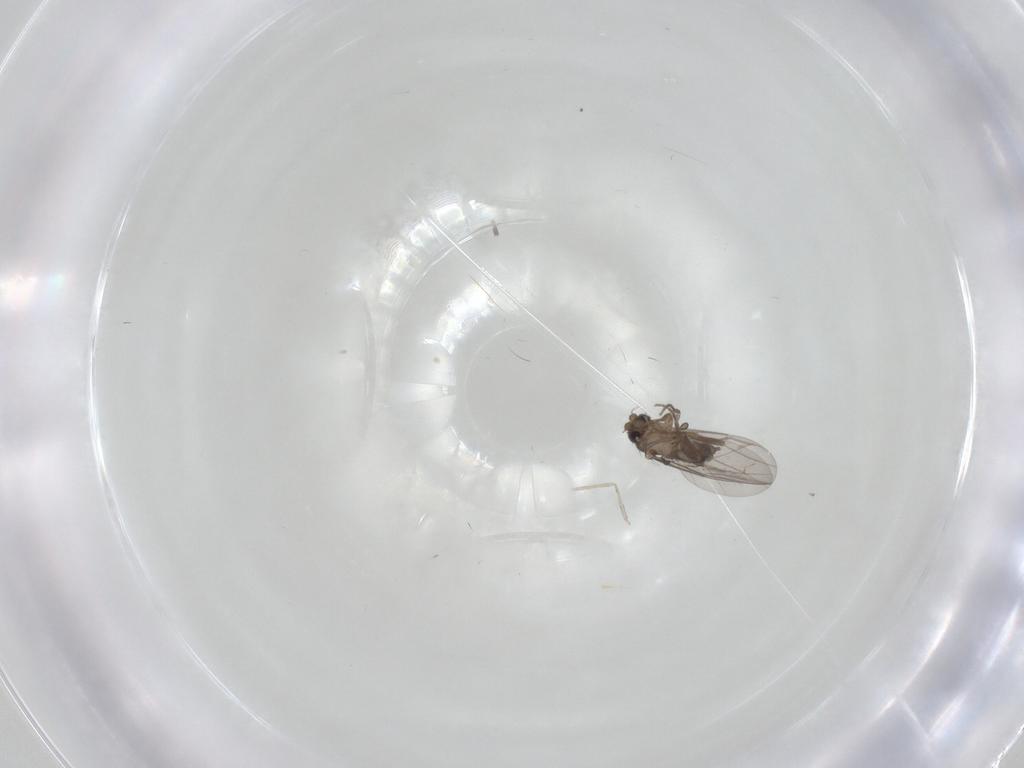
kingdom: Animalia
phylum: Arthropoda
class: Insecta
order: Diptera
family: Cecidomyiidae
